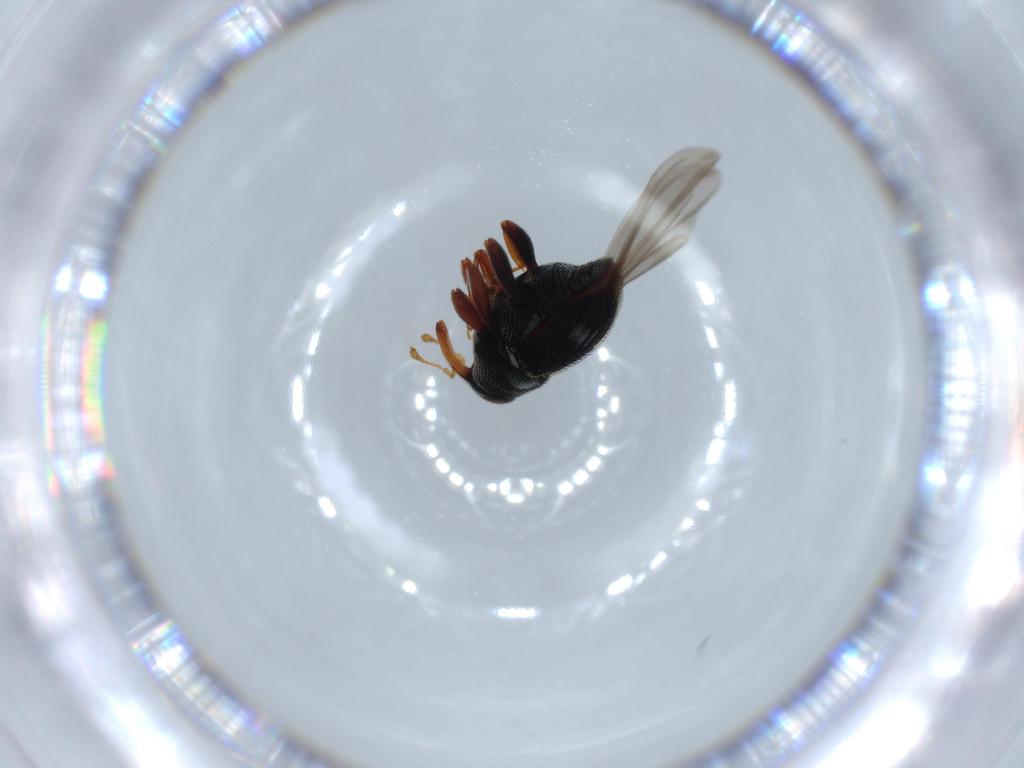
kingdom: Animalia
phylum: Arthropoda
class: Insecta
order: Coleoptera
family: Curculionidae
